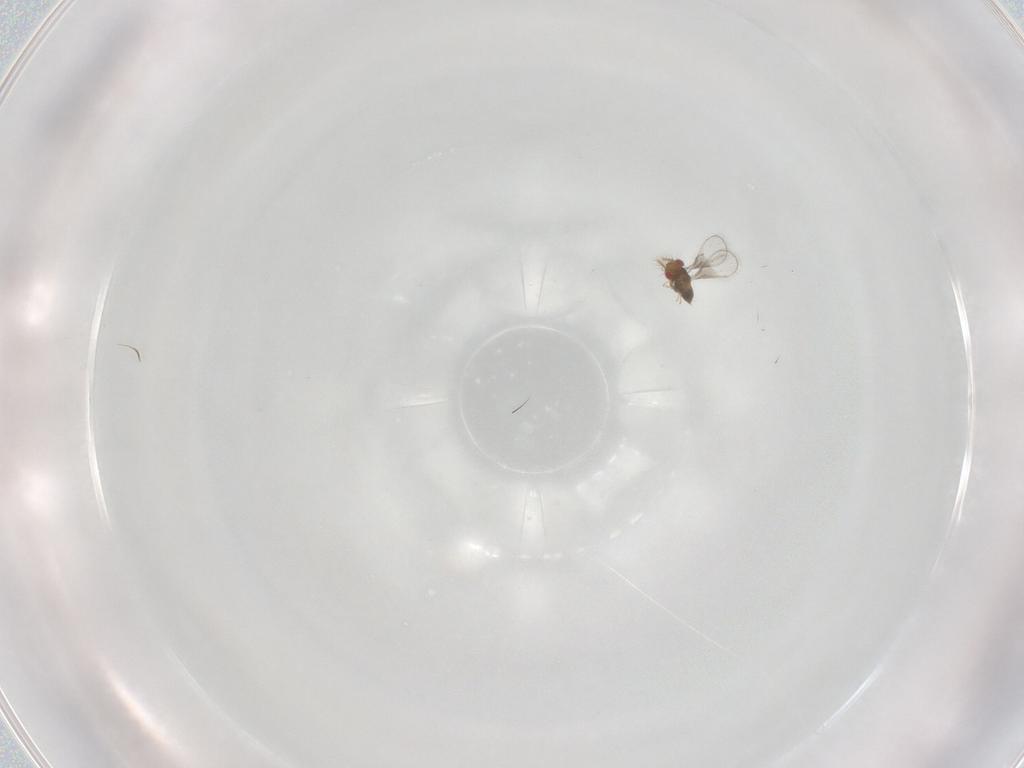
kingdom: Animalia
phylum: Arthropoda
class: Insecta
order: Hymenoptera
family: Trichogrammatidae
